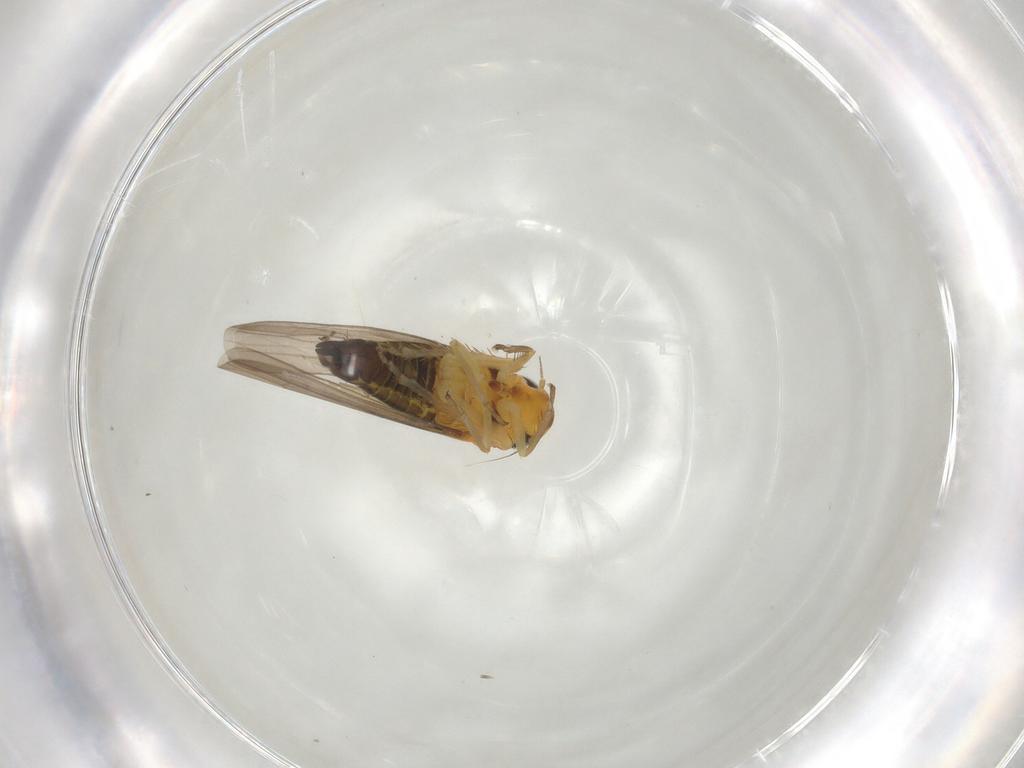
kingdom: Animalia
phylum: Arthropoda
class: Insecta
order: Hemiptera
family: Cicadellidae
